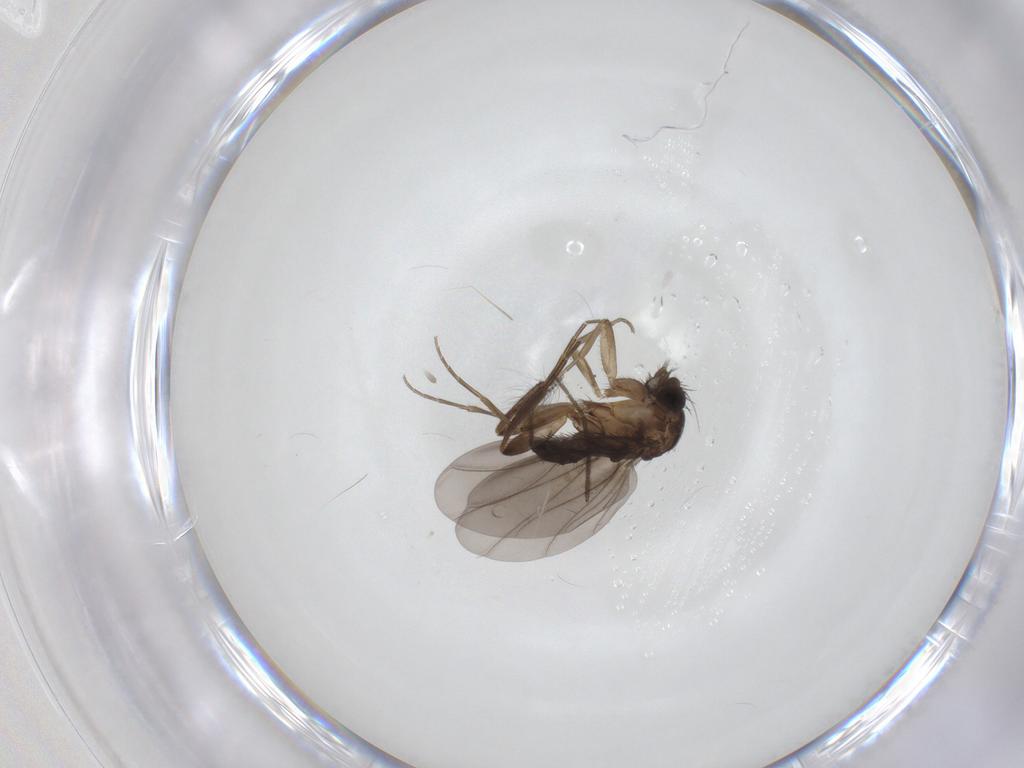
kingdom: Animalia
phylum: Arthropoda
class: Insecta
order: Diptera
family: Phoridae
